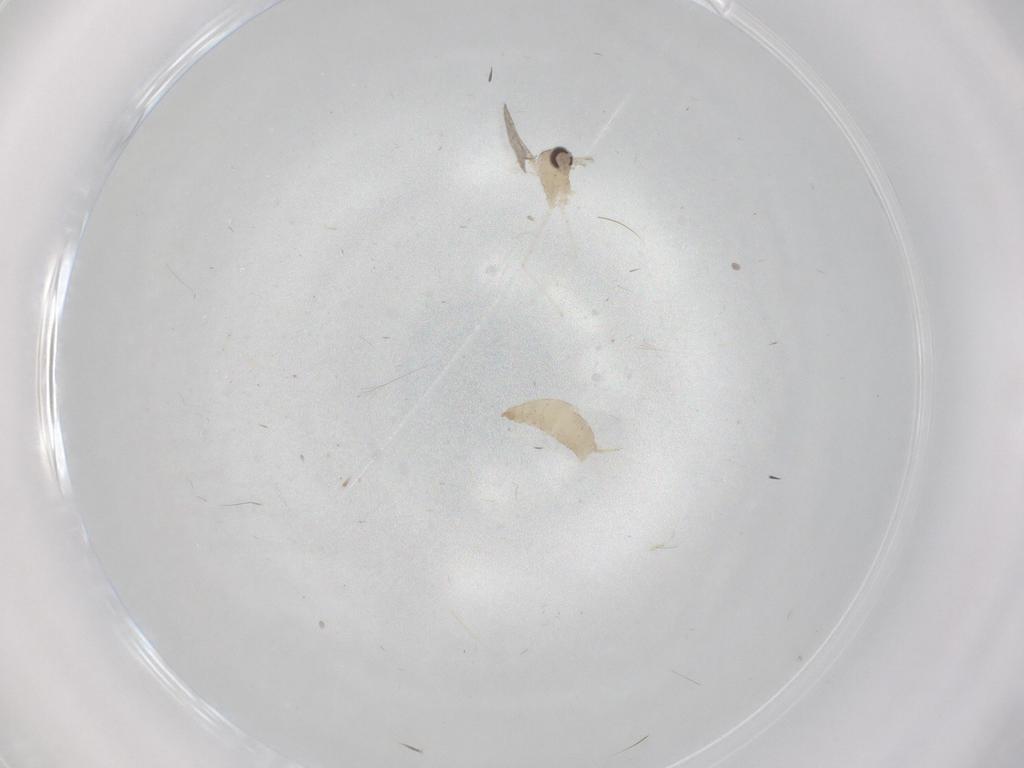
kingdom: Animalia
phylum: Arthropoda
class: Insecta
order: Diptera
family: Cecidomyiidae
